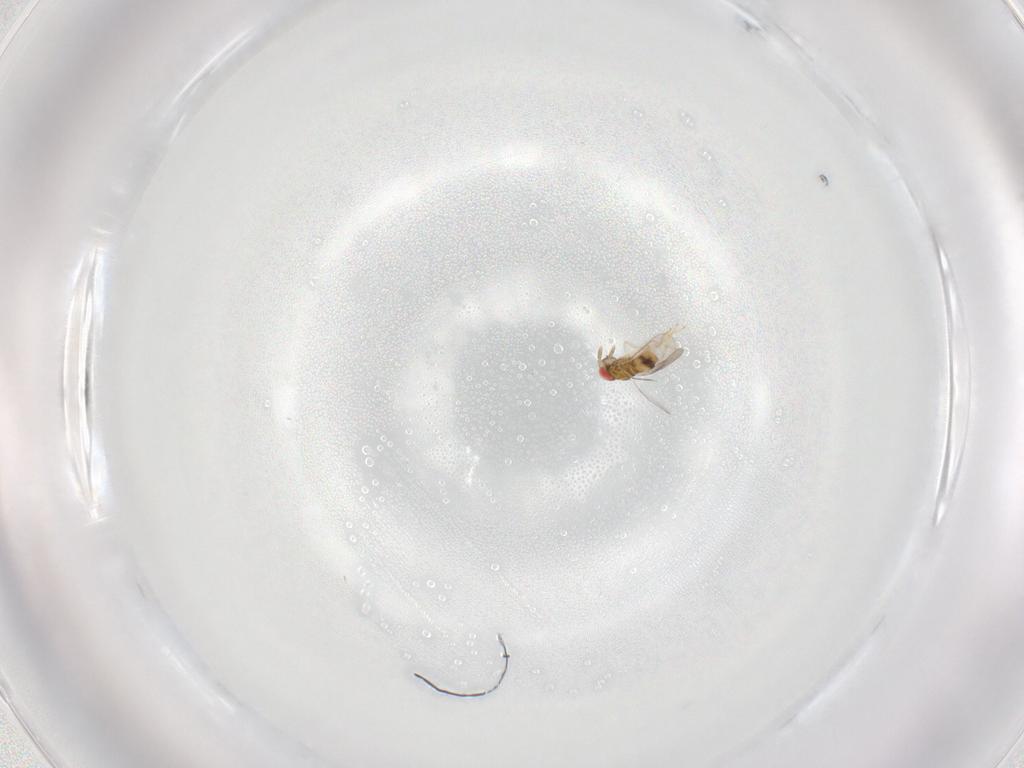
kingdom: Animalia
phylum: Arthropoda
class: Insecta
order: Hymenoptera
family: Aphelinidae
